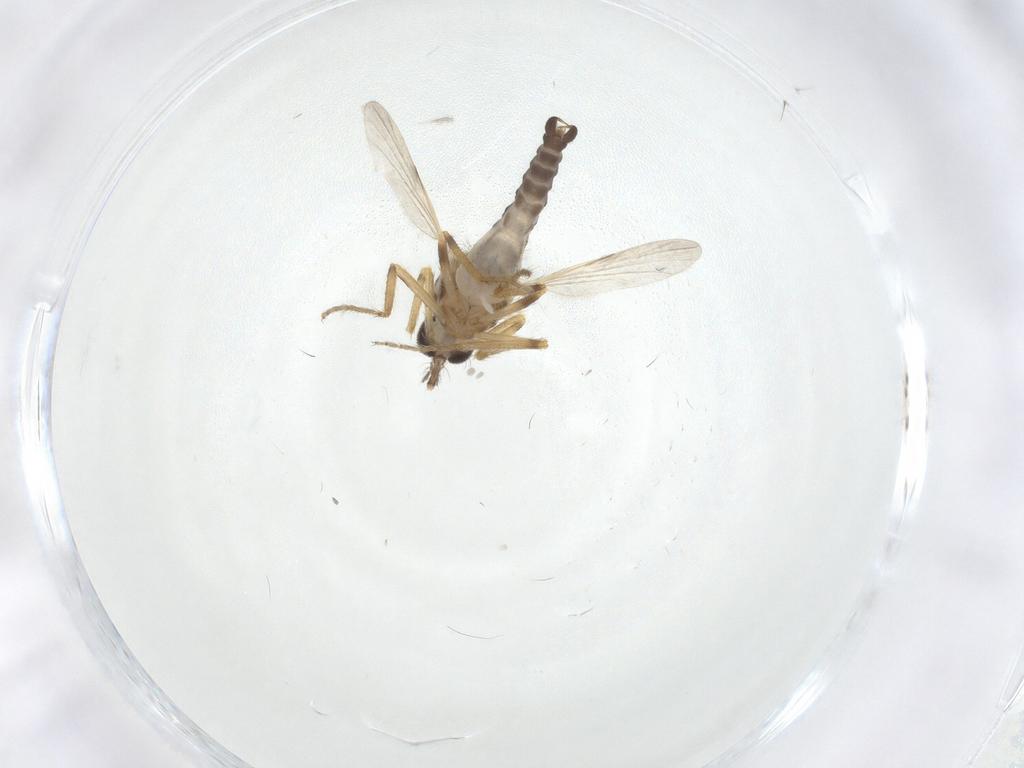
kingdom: Animalia
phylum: Arthropoda
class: Insecta
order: Diptera
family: Ceratopogonidae
